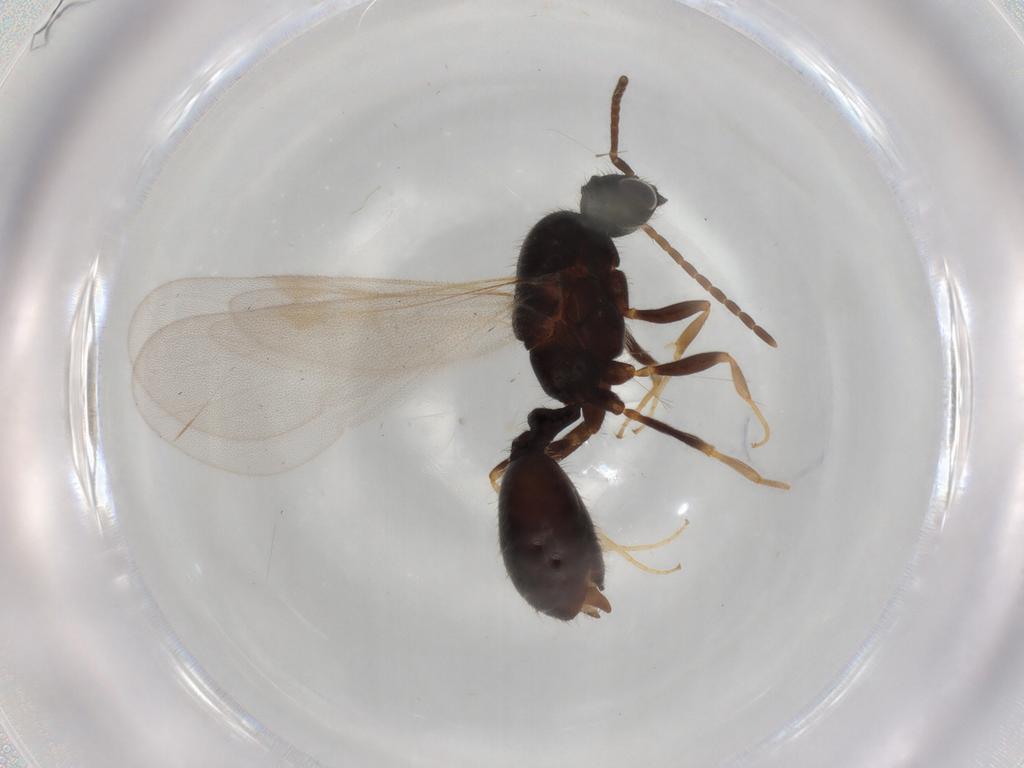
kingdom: Animalia
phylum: Arthropoda
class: Insecta
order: Hymenoptera
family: Formicidae
